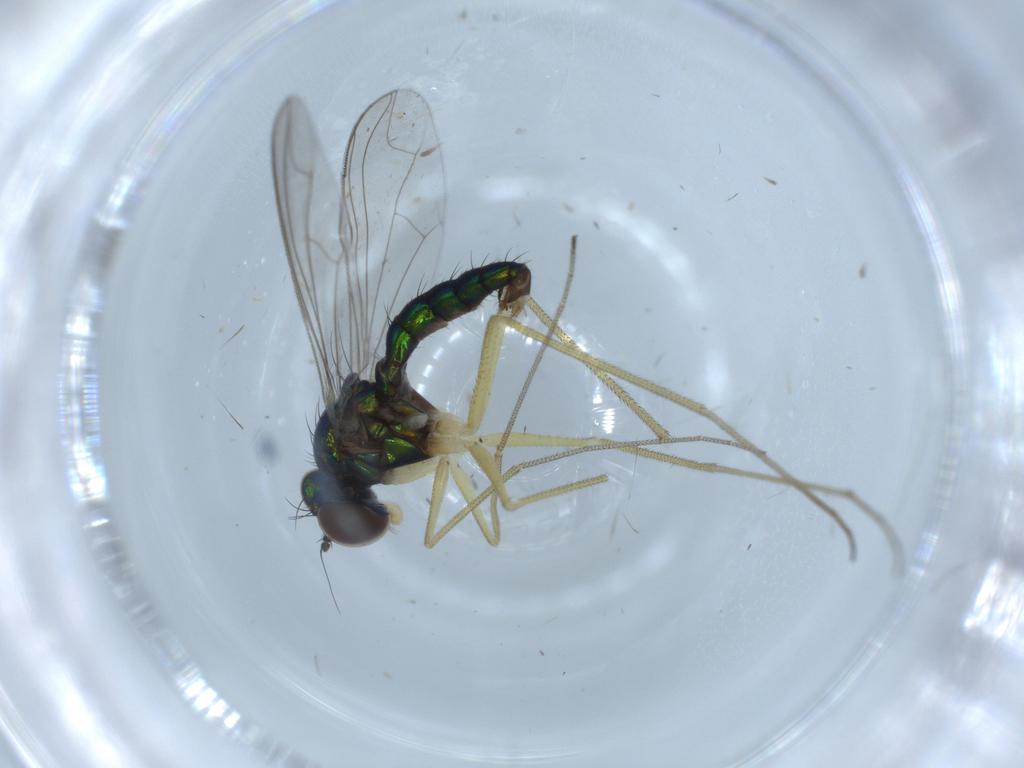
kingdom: Animalia
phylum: Arthropoda
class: Insecta
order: Diptera
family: Dolichopodidae
